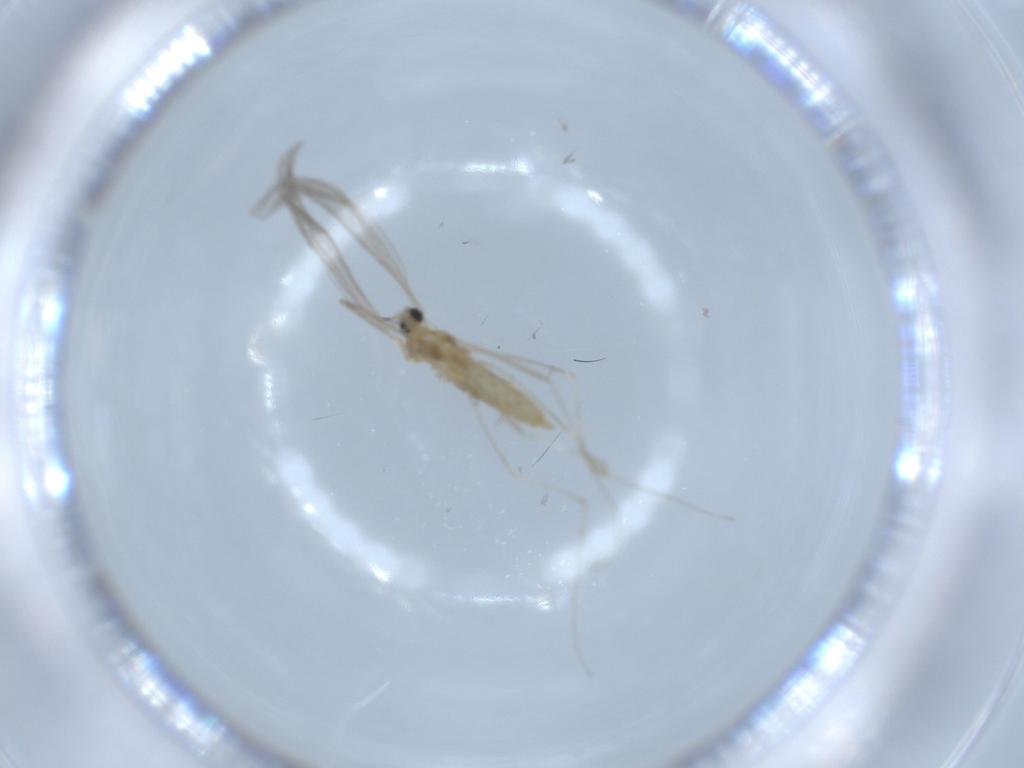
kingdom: Animalia
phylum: Arthropoda
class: Insecta
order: Diptera
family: Cecidomyiidae
